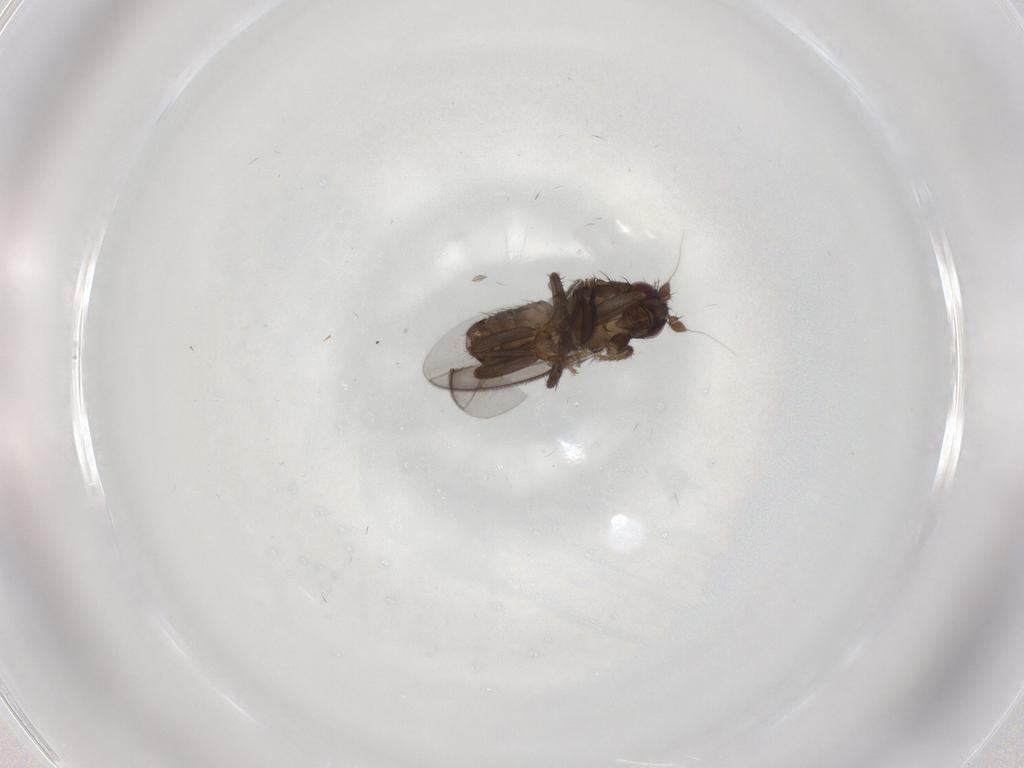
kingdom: Animalia
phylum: Arthropoda
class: Insecta
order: Diptera
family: Sphaeroceridae
